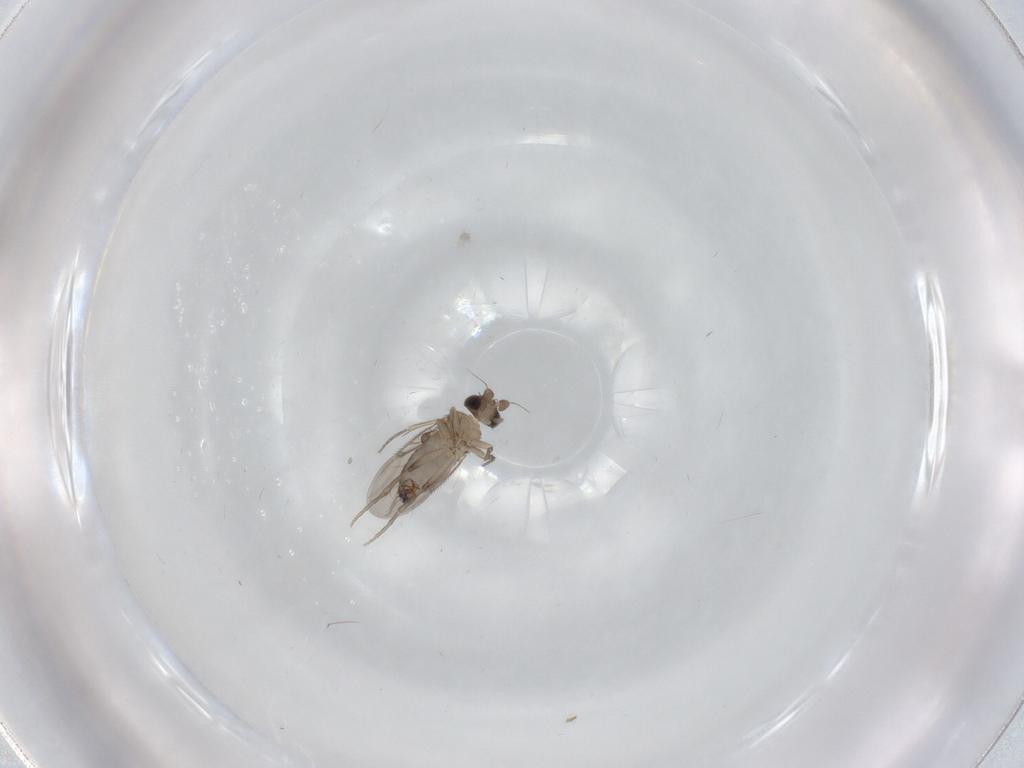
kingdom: Animalia
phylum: Arthropoda
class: Insecta
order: Diptera
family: Phoridae
